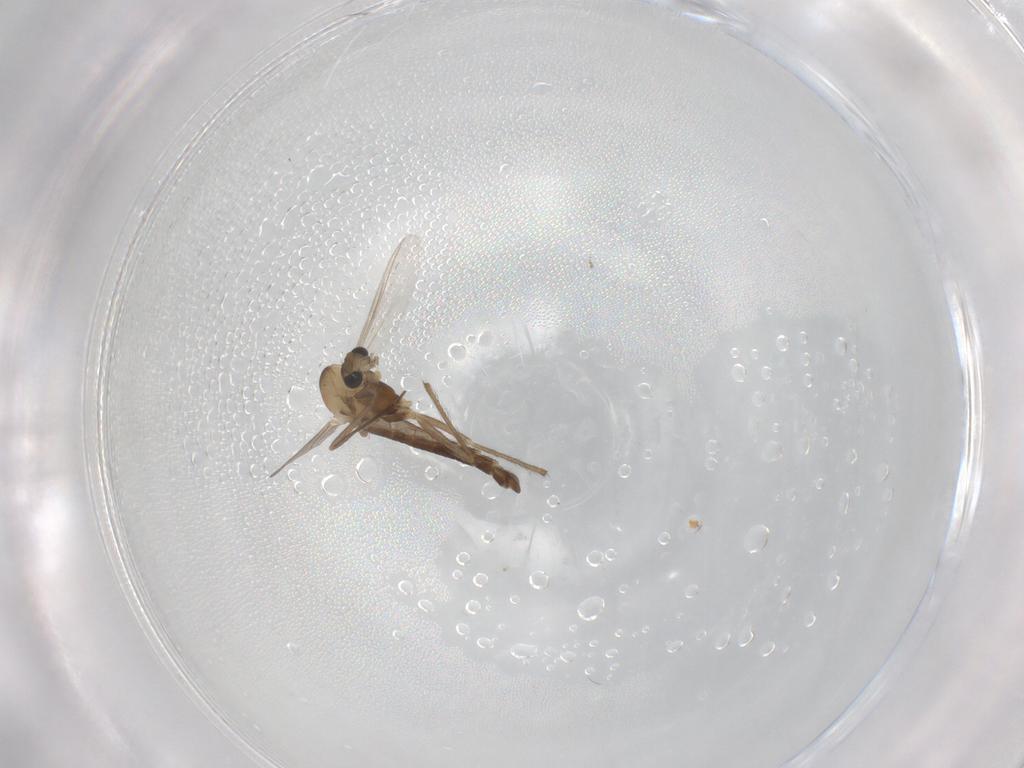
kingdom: Animalia
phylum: Arthropoda
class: Insecta
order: Diptera
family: Chironomidae
